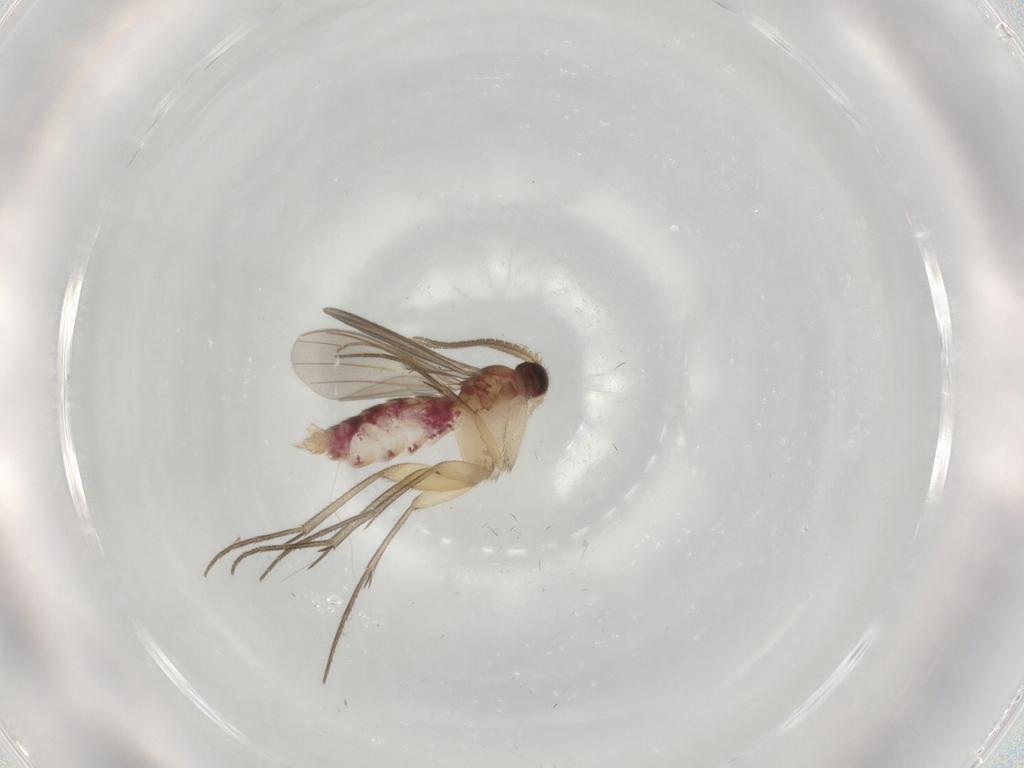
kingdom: Animalia
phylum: Arthropoda
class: Insecta
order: Diptera
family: Mycetophilidae
